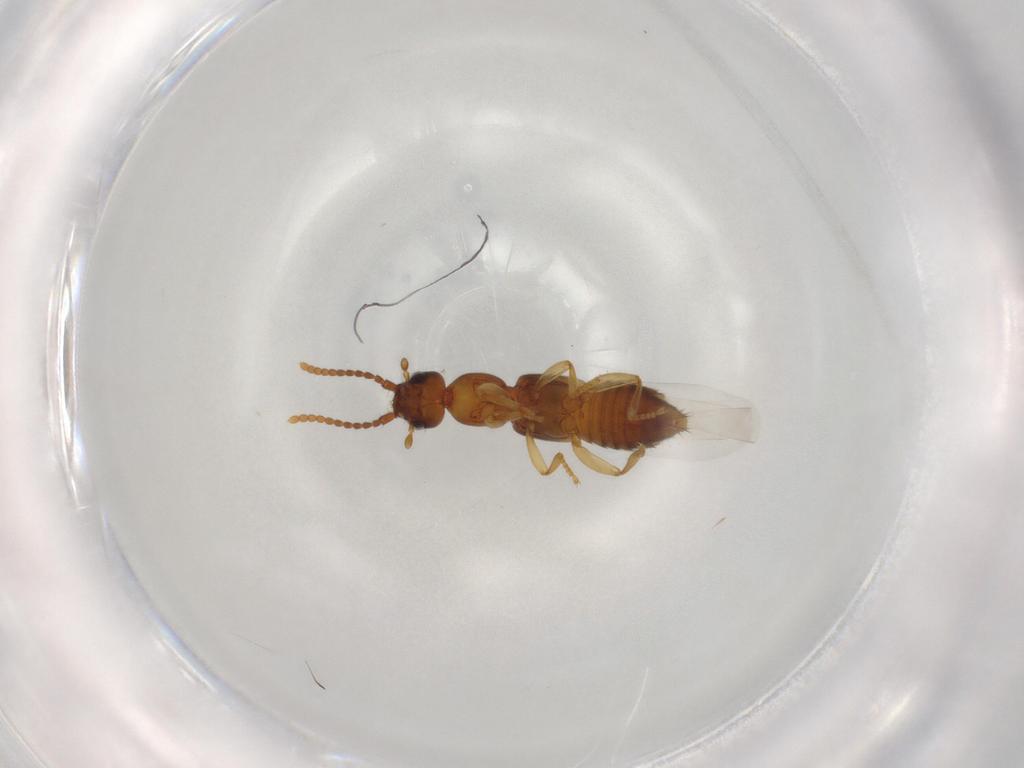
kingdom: Animalia
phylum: Arthropoda
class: Insecta
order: Coleoptera
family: Staphylinidae
